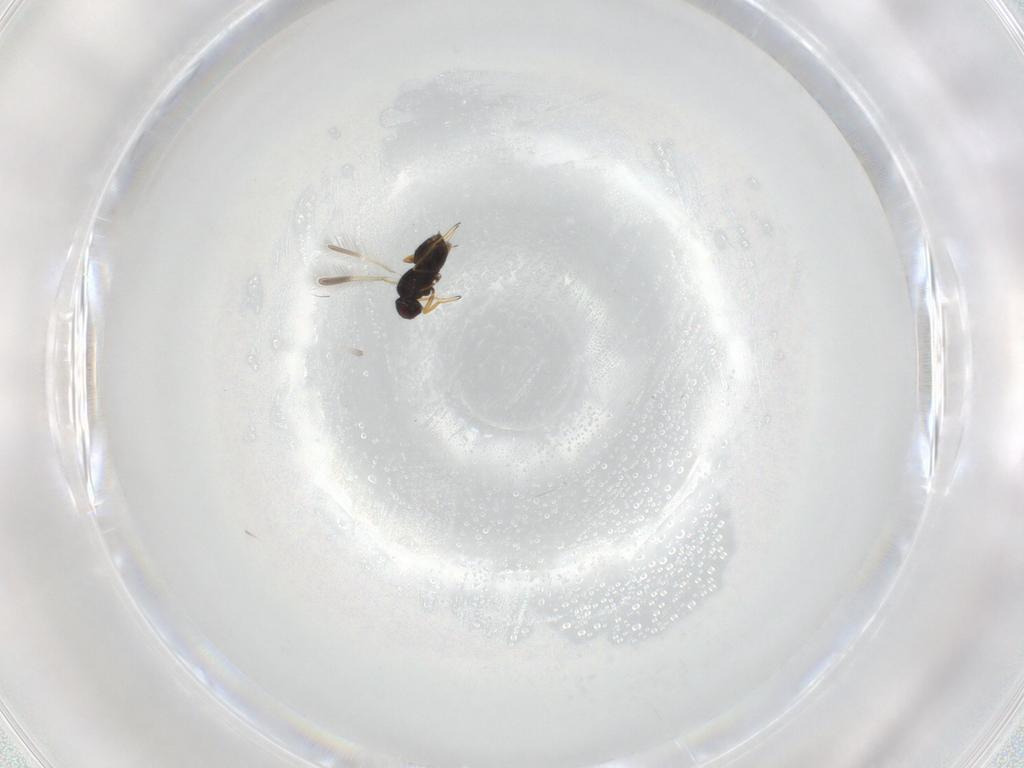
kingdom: Animalia
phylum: Arthropoda
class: Insecta
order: Hymenoptera
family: Mymaridae
